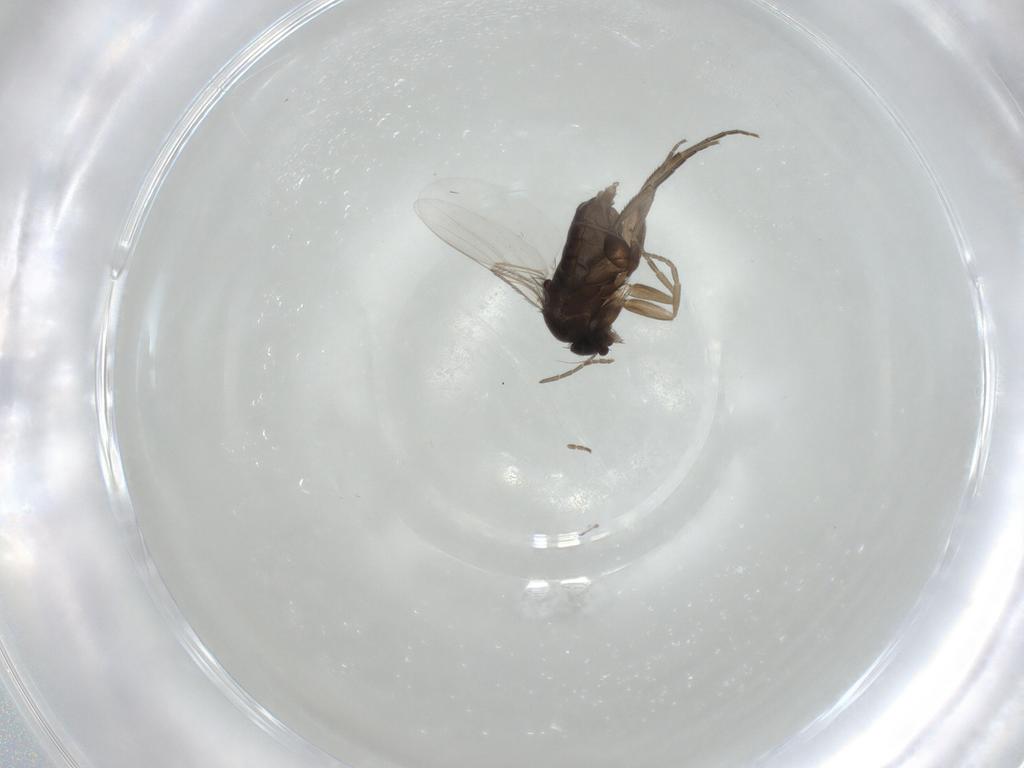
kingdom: Animalia
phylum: Arthropoda
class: Insecta
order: Diptera
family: Phoridae
